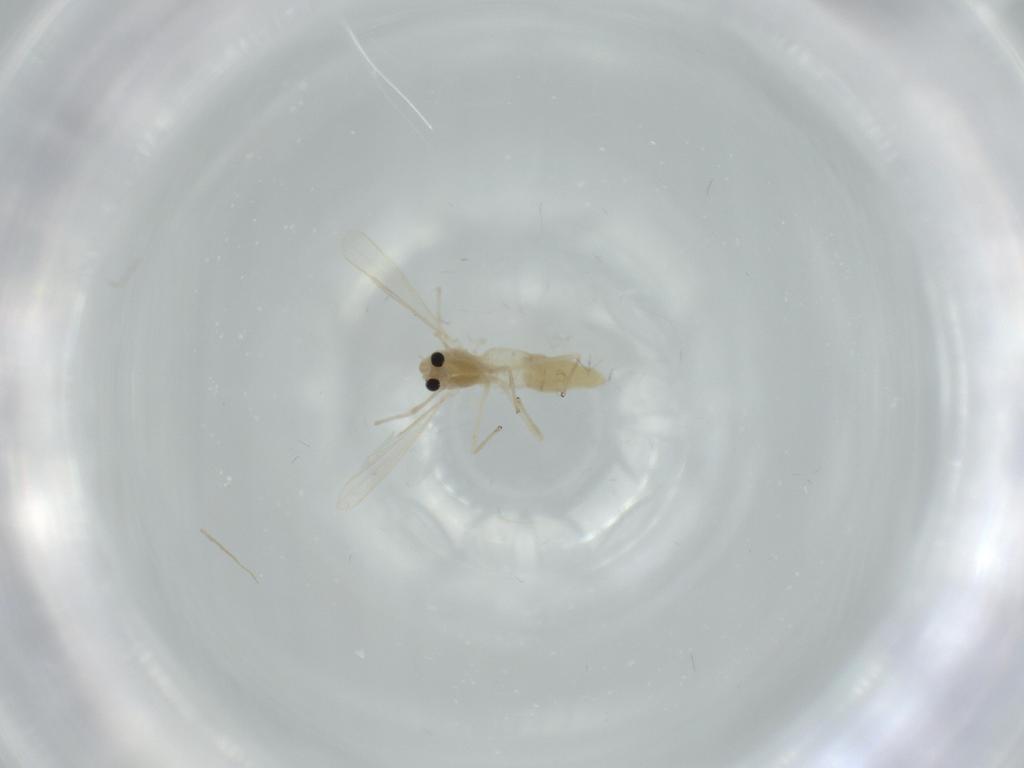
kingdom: Animalia
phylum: Arthropoda
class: Insecta
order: Diptera
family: Chironomidae
